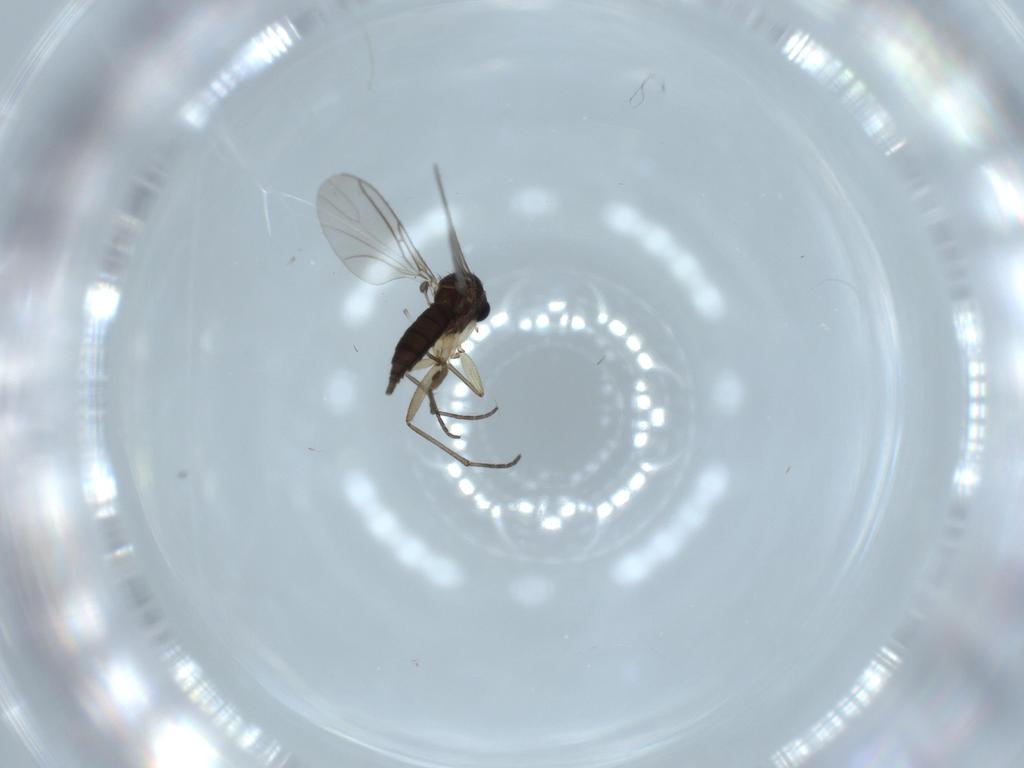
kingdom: Animalia
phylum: Arthropoda
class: Insecta
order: Diptera
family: Sciaridae
